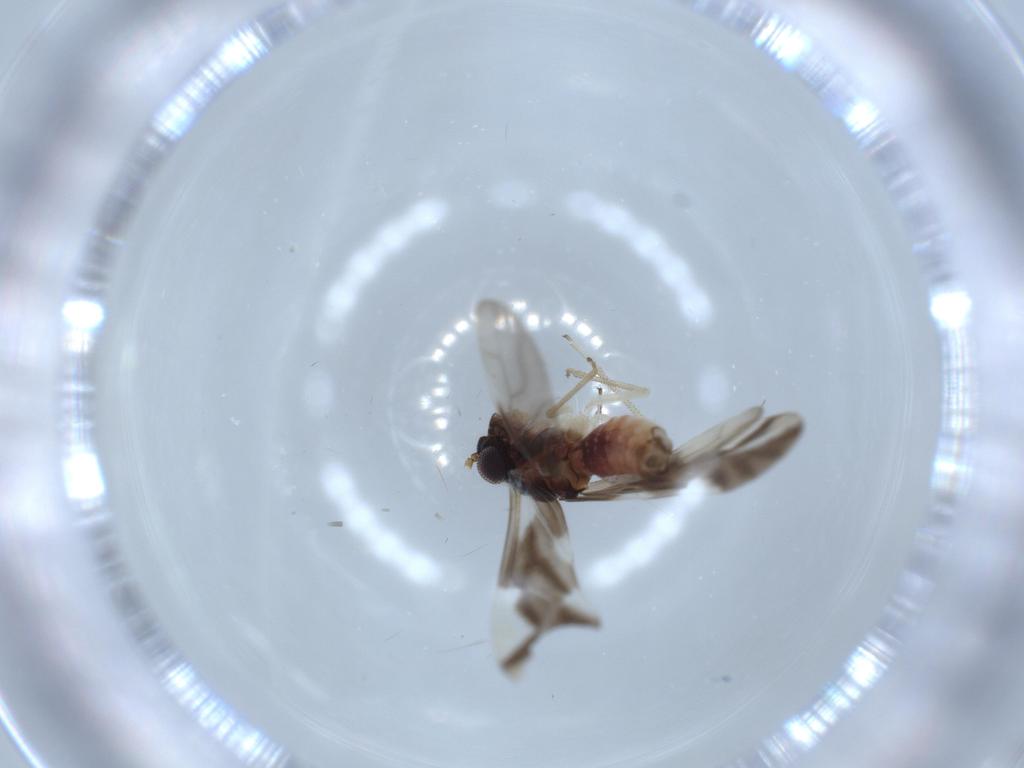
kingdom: Animalia
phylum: Arthropoda
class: Insecta
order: Psocodea
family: Caeciliusidae
